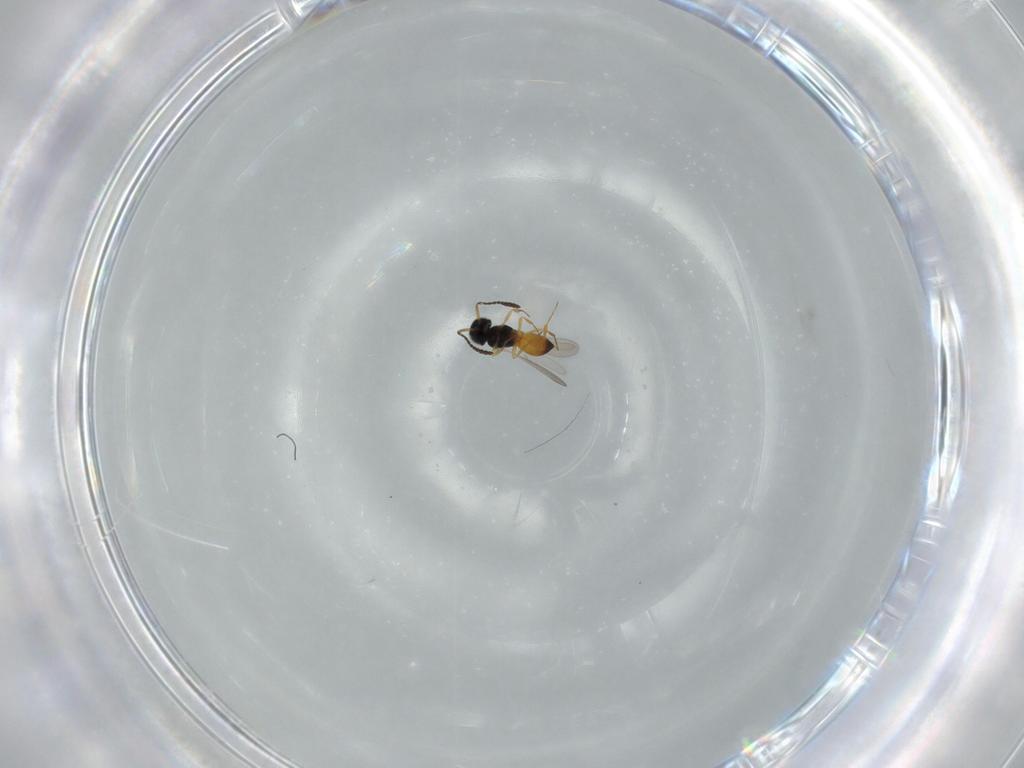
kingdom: Animalia
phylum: Arthropoda
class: Insecta
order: Hymenoptera
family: Scelionidae
